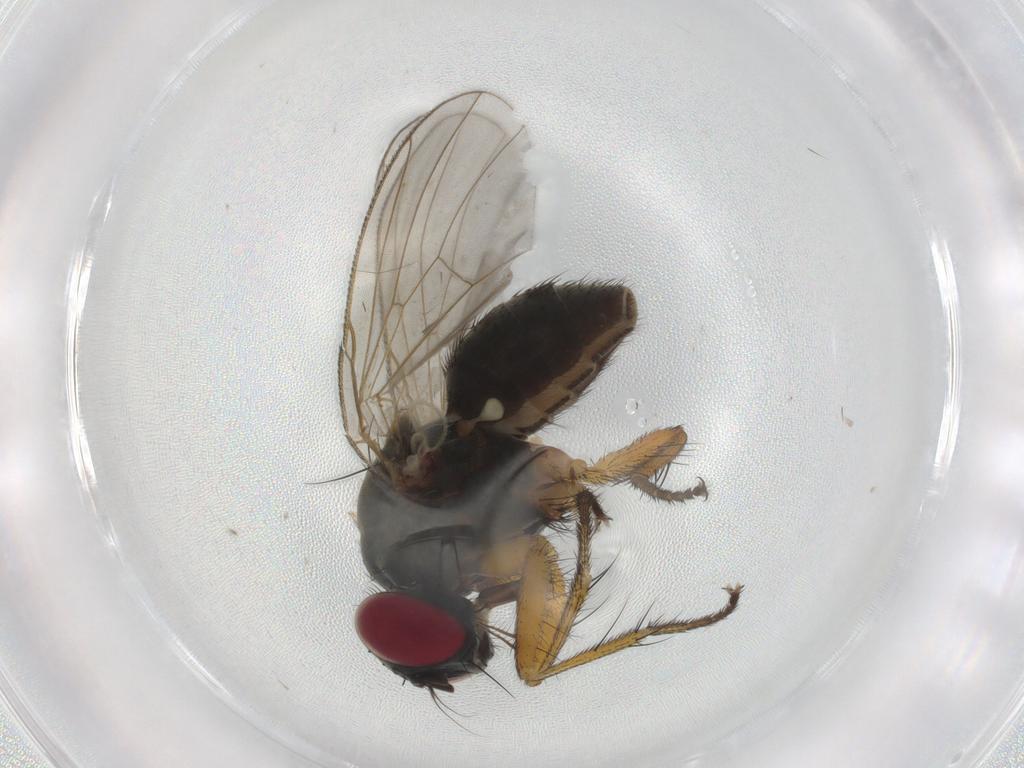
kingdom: Animalia
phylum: Arthropoda
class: Insecta
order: Diptera
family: Muscidae
